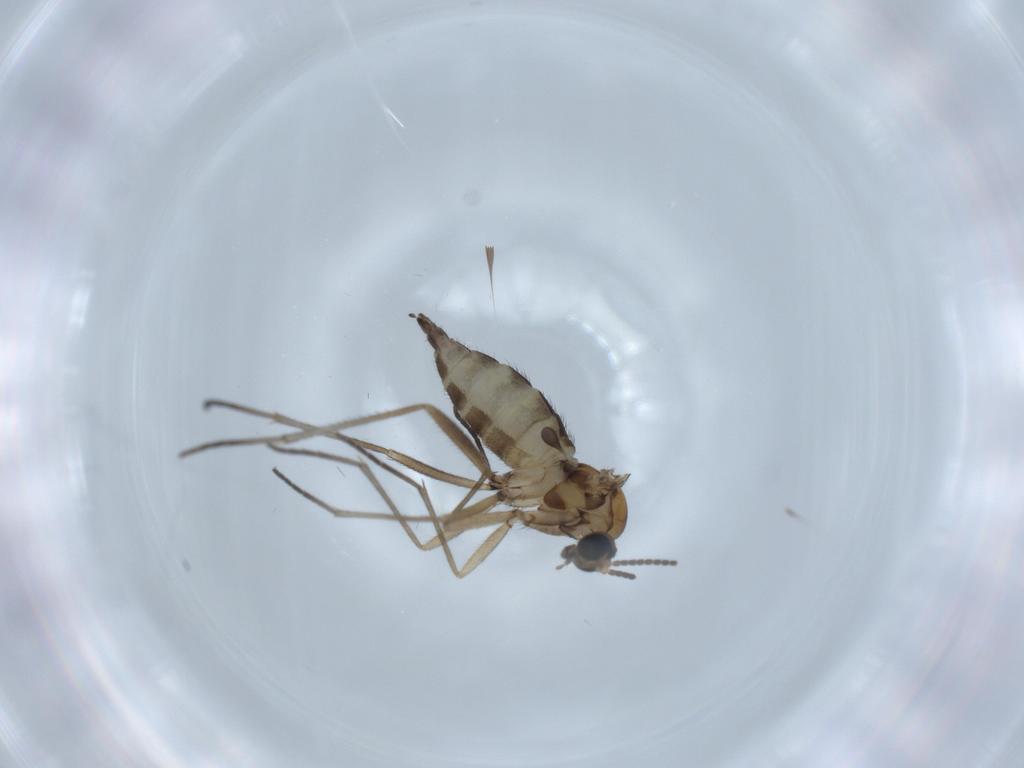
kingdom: Animalia
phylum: Arthropoda
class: Insecta
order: Diptera
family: Sciaridae
